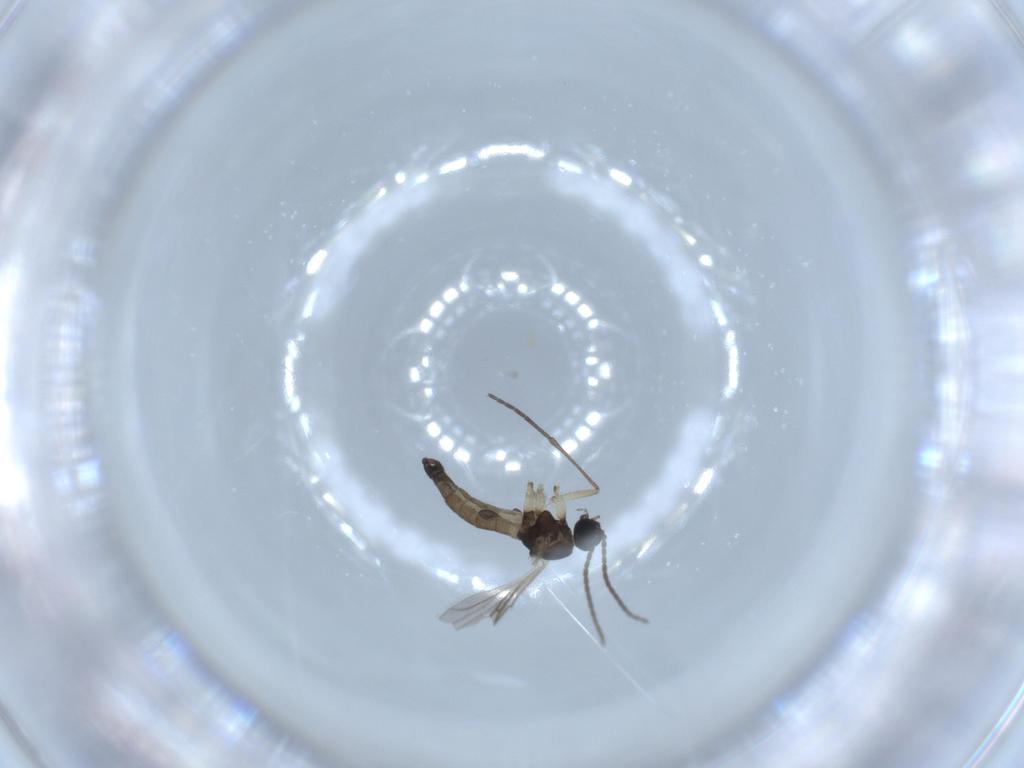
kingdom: Animalia
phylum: Arthropoda
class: Insecta
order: Diptera
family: Sciaridae
